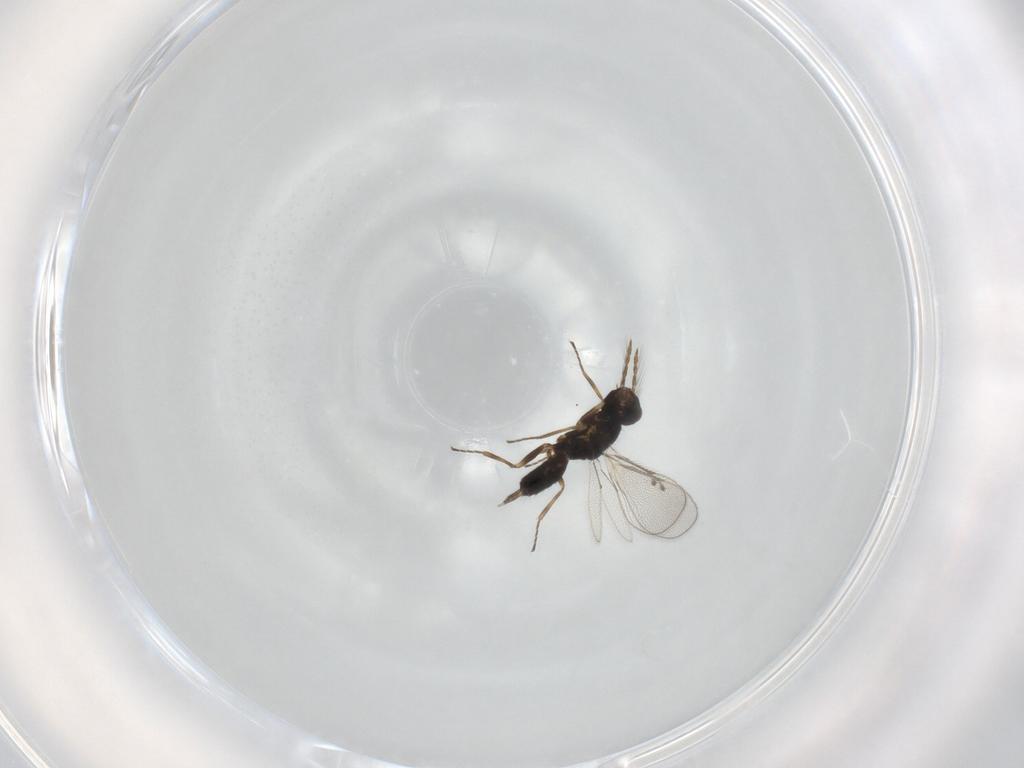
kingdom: Animalia
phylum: Arthropoda
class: Insecta
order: Hymenoptera
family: Eulophidae
